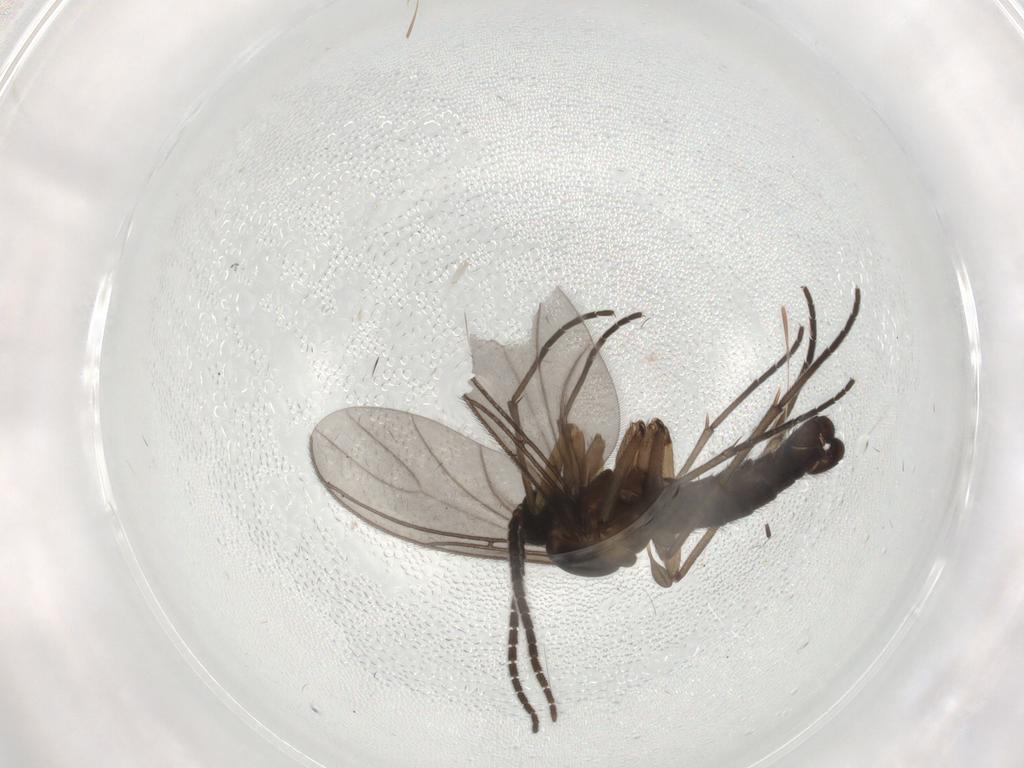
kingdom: Animalia
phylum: Arthropoda
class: Insecta
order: Diptera
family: Sciaridae
